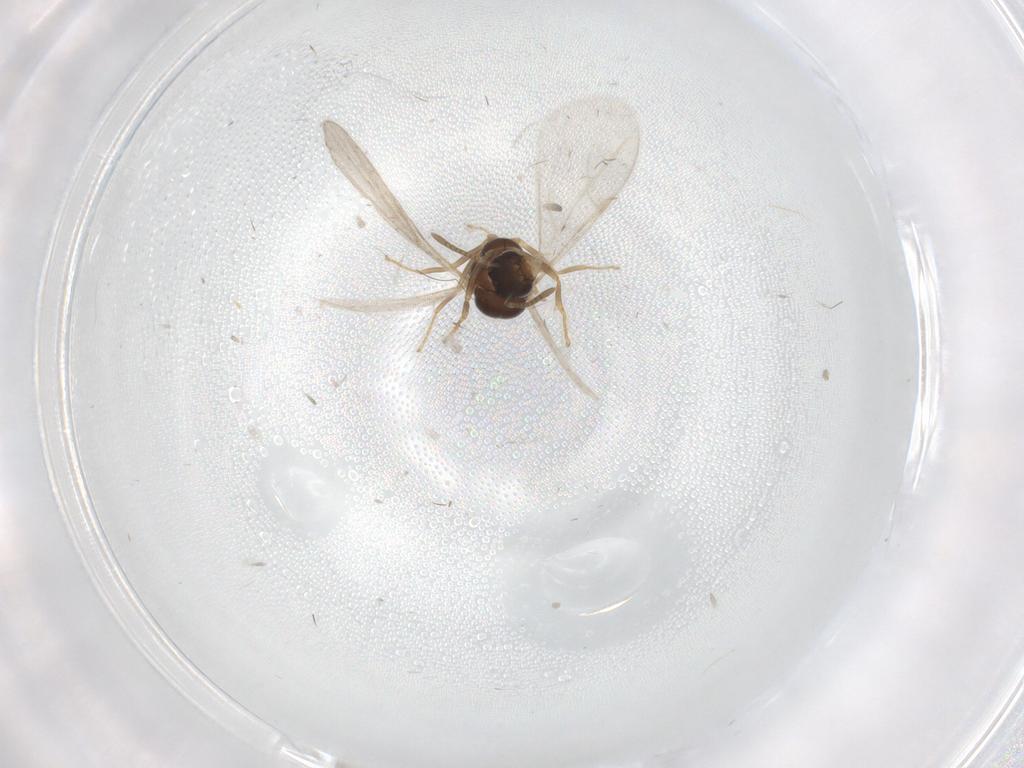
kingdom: Animalia
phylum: Arthropoda
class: Insecta
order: Hymenoptera
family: Formicidae
